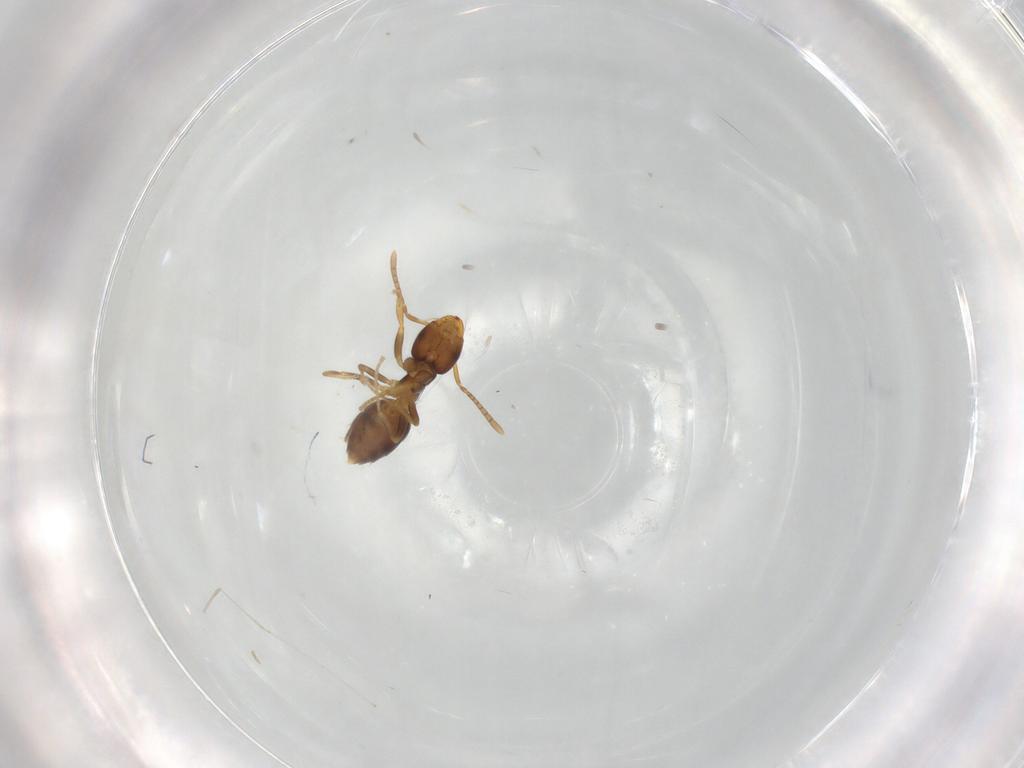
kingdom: Animalia
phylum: Arthropoda
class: Insecta
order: Hymenoptera
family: Formicidae
